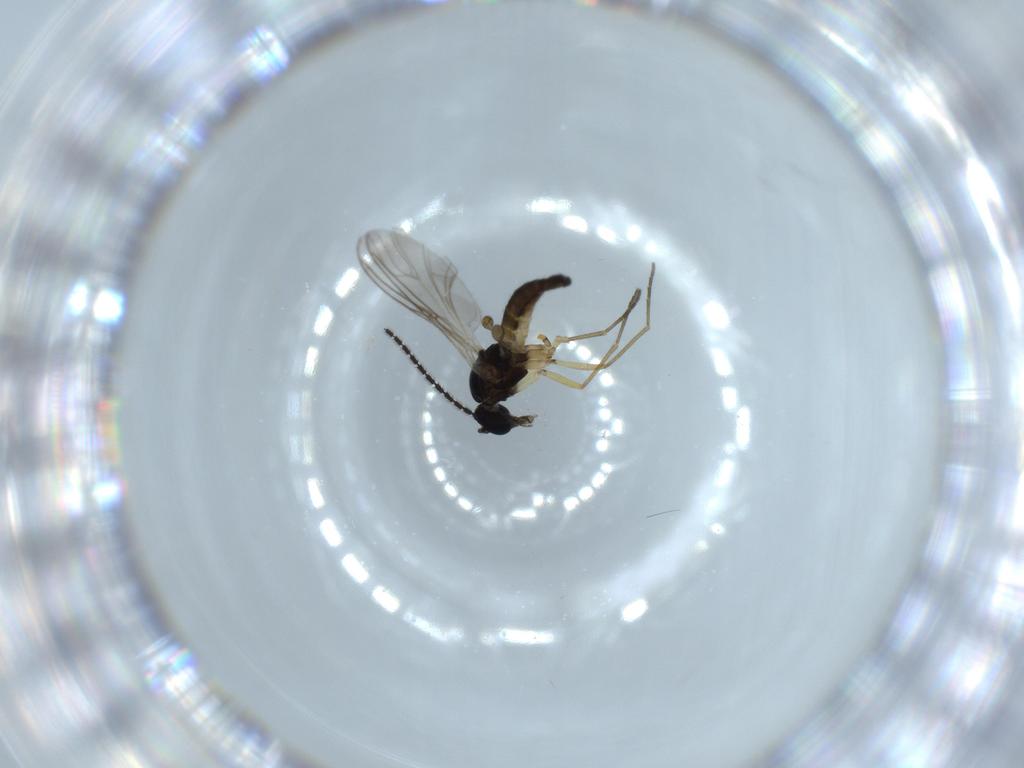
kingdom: Animalia
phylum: Arthropoda
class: Insecta
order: Diptera
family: Sciaridae
